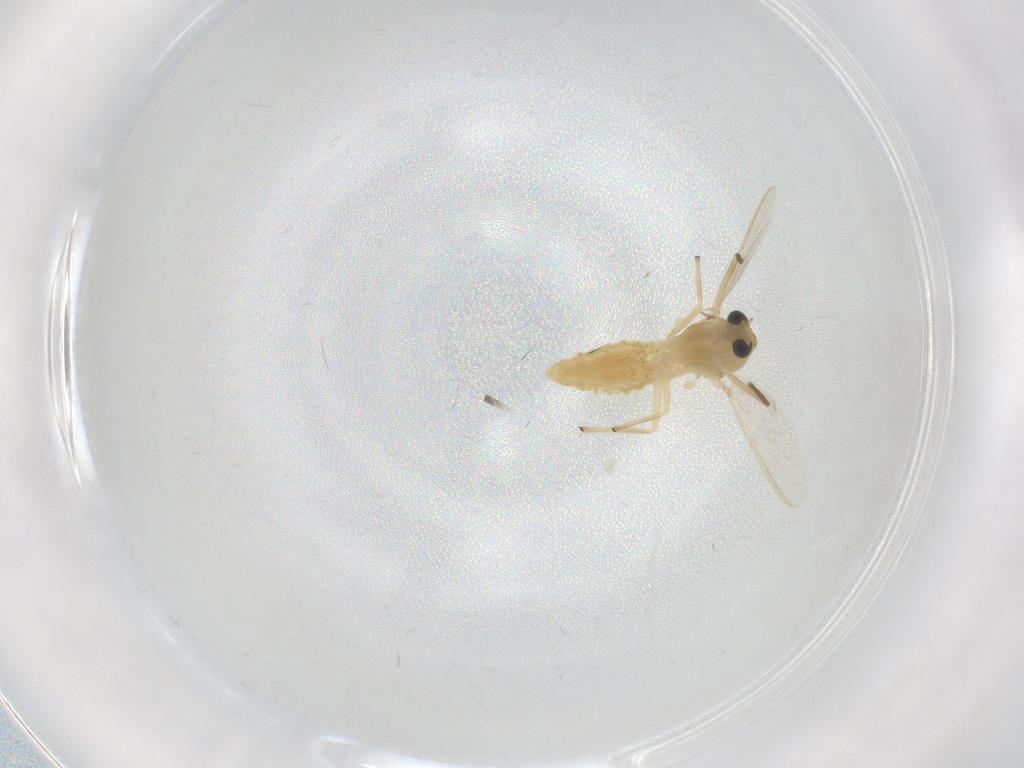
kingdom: Animalia
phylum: Arthropoda
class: Insecta
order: Diptera
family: Chironomidae
